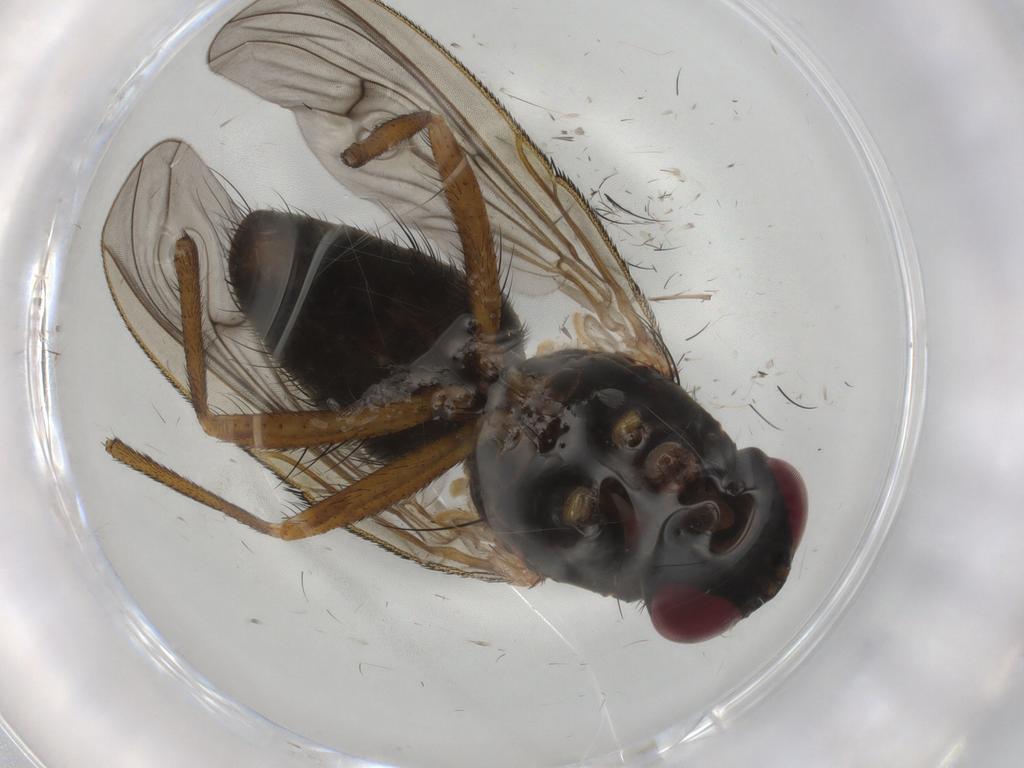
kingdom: Animalia
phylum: Arthropoda
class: Insecta
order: Diptera
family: Muscidae
